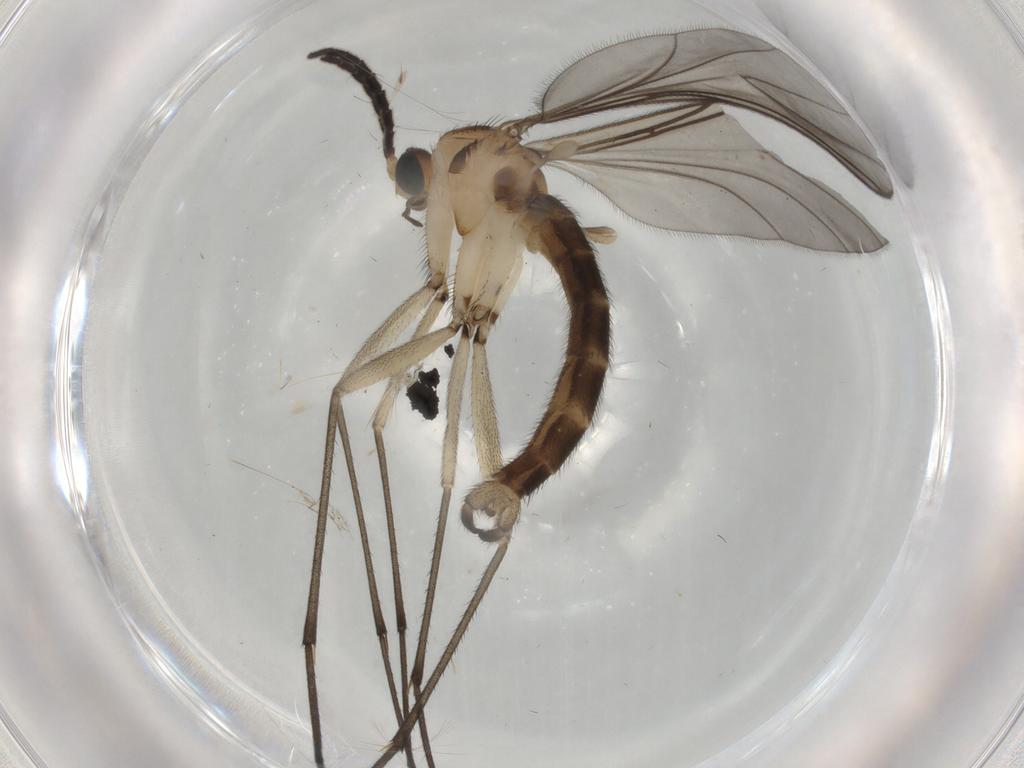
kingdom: Animalia
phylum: Arthropoda
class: Insecta
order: Diptera
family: Sciaridae
